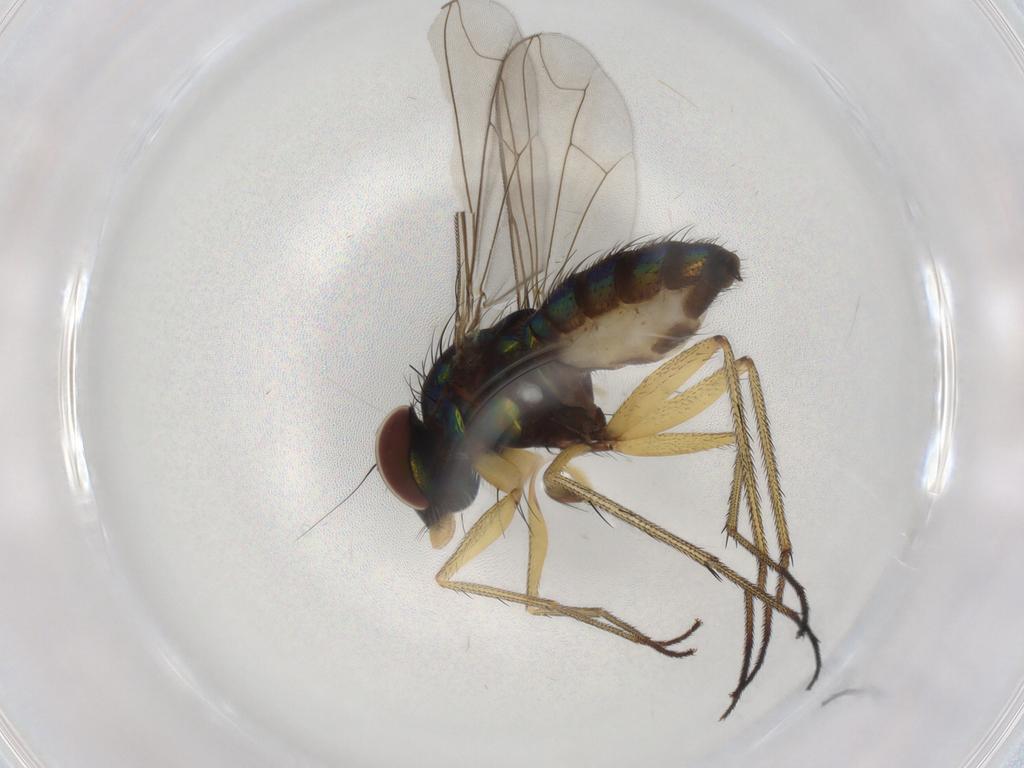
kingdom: Animalia
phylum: Arthropoda
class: Insecta
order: Diptera
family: Dolichopodidae
